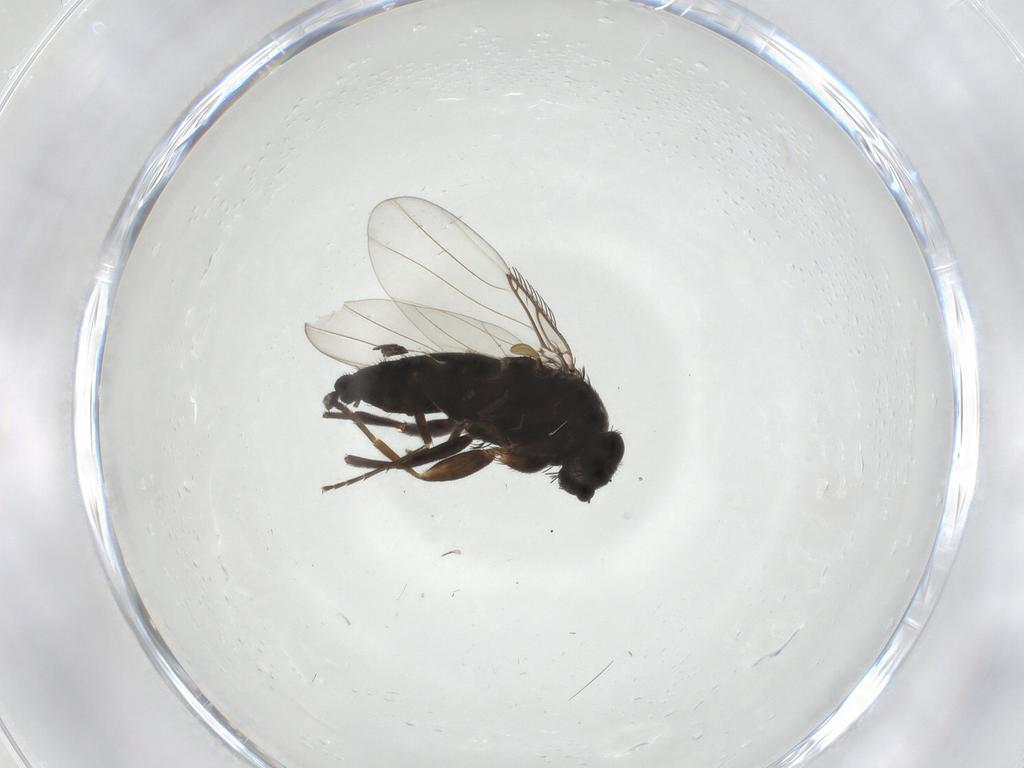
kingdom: Animalia
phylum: Arthropoda
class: Insecta
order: Diptera
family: Phoridae
